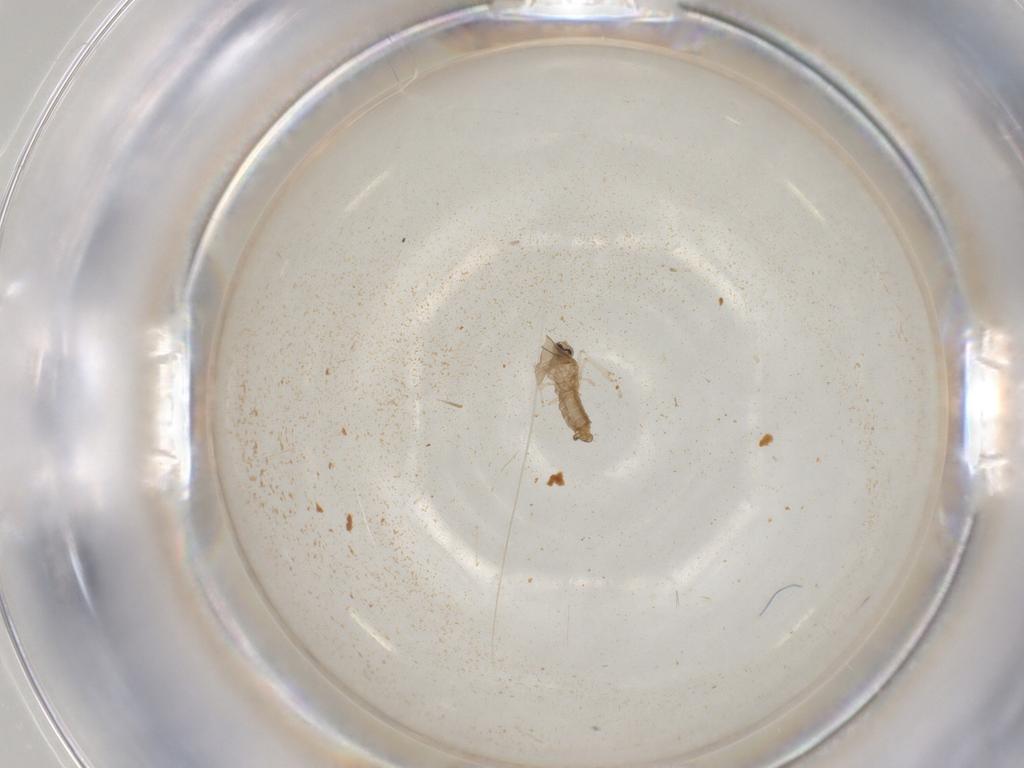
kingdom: Animalia
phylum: Arthropoda
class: Insecta
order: Diptera
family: Cecidomyiidae
